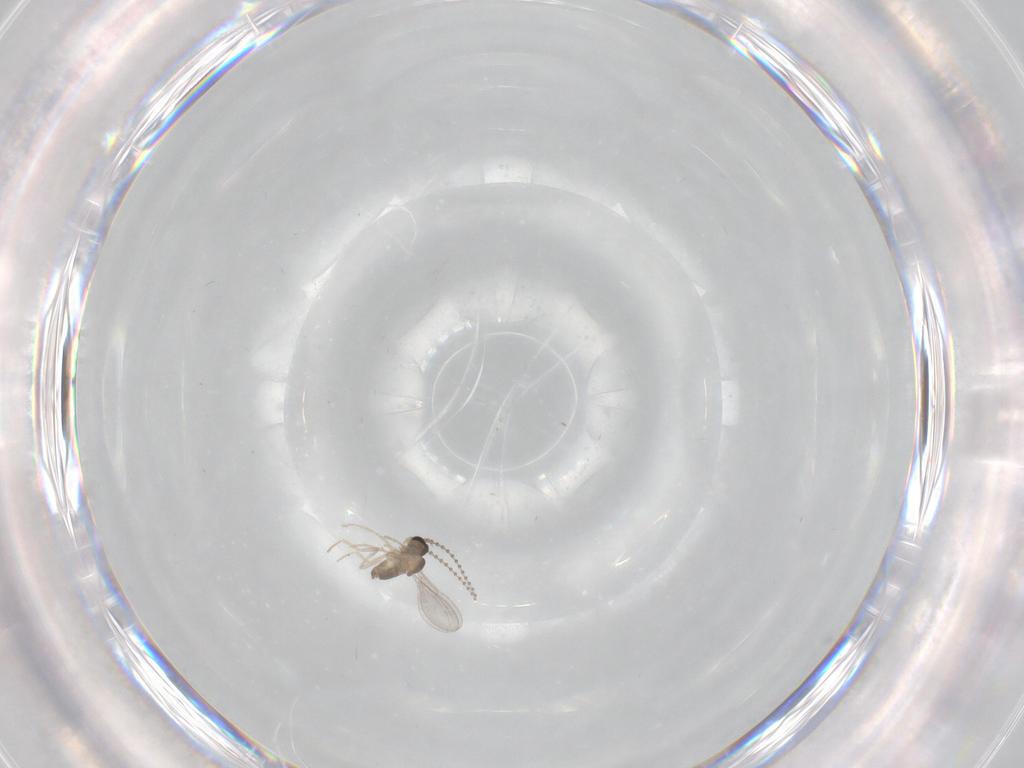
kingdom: Animalia
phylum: Arthropoda
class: Insecta
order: Diptera
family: Cecidomyiidae
